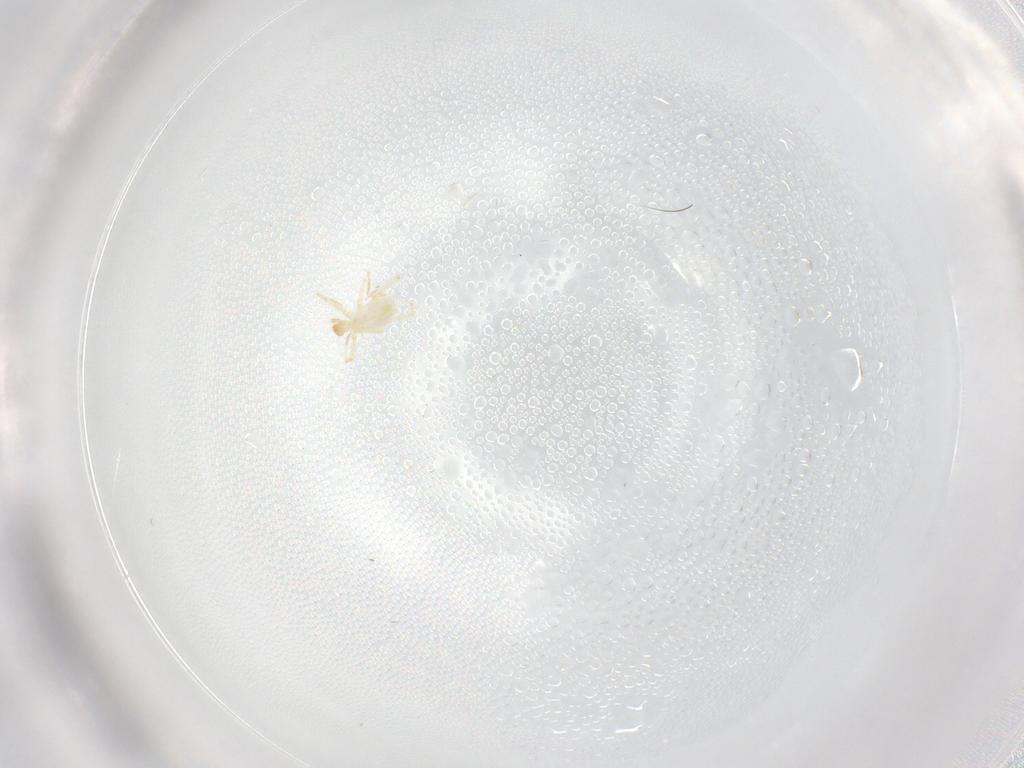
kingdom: Animalia
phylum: Arthropoda
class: Arachnida
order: Trombidiformes
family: Erythraeidae
